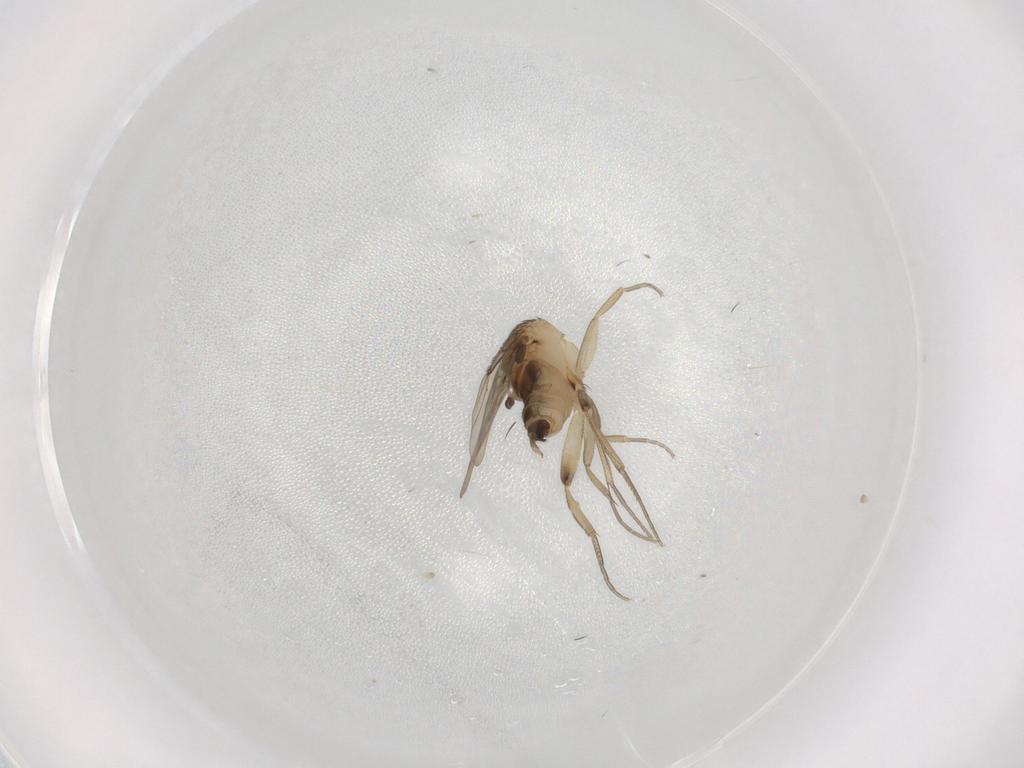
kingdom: Animalia
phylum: Arthropoda
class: Insecta
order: Diptera
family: Phoridae
